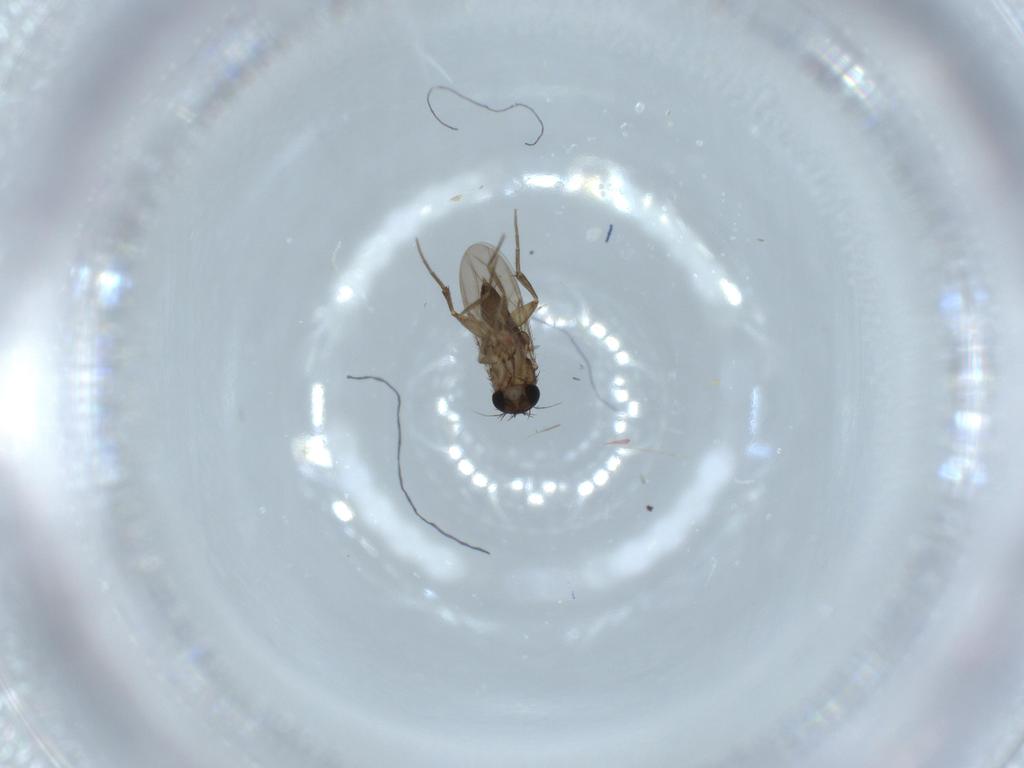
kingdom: Animalia
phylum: Arthropoda
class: Insecta
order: Diptera
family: Phoridae
